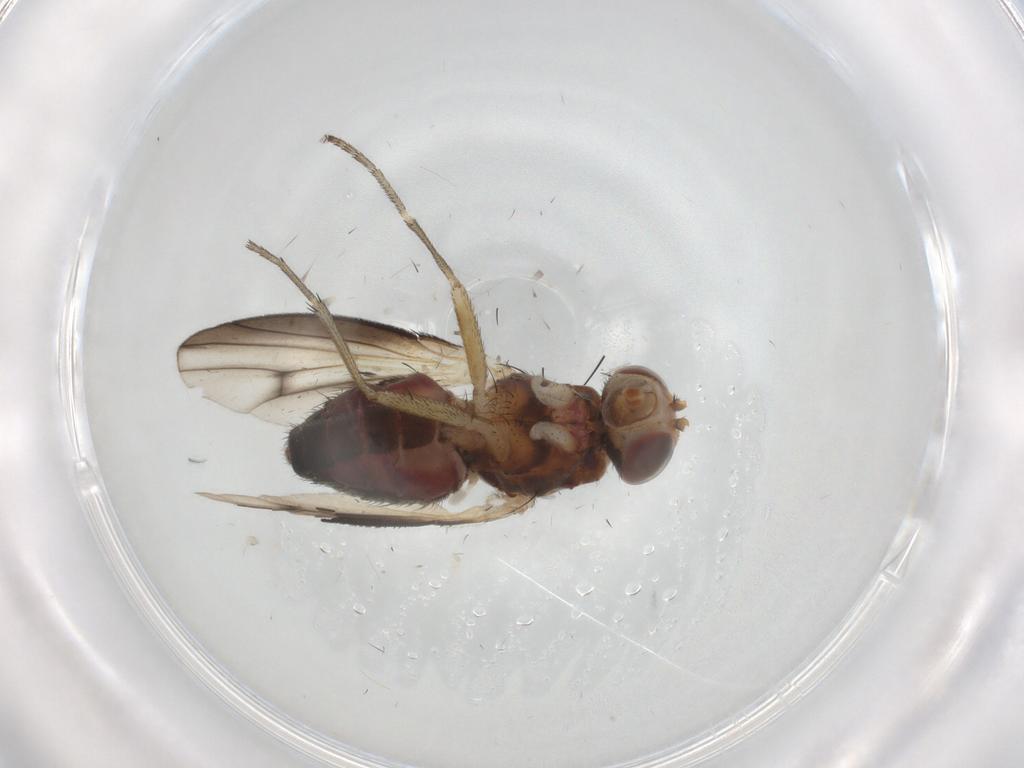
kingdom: Animalia
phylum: Arthropoda
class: Insecta
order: Diptera
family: Heleomyzidae
